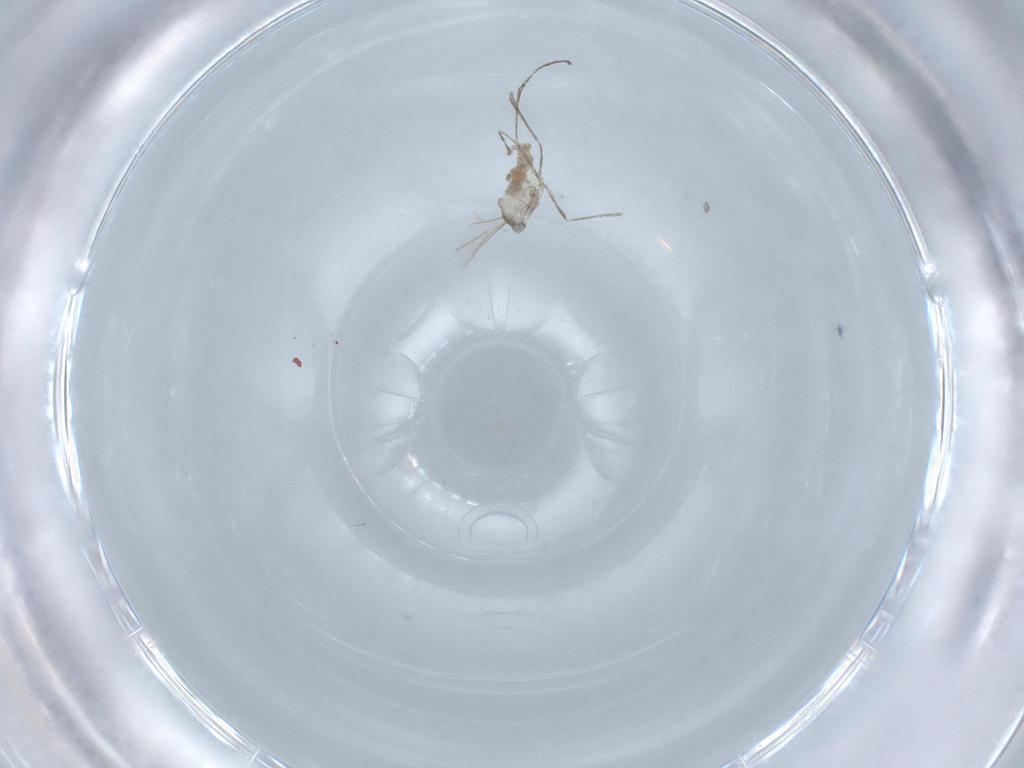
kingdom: Animalia
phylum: Arthropoda
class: Insecta
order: Diptera
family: Cecidomyiidae
